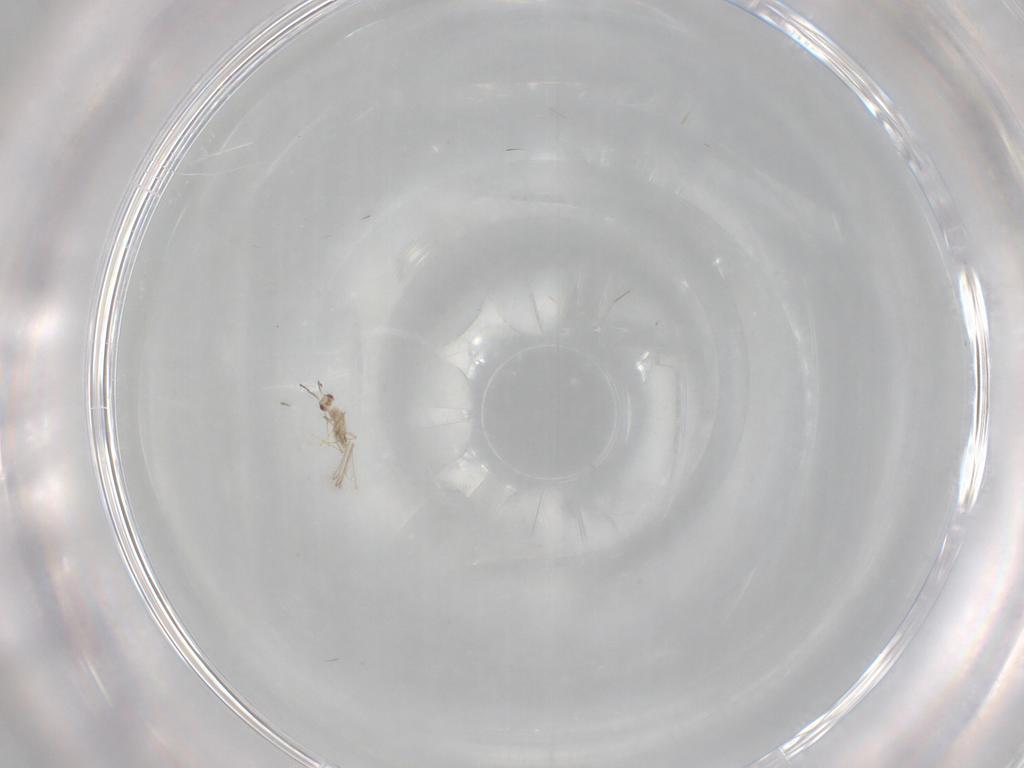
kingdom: Animalia
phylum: Arthropoda
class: Insecta
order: Hymenoptera
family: Mymaridae
